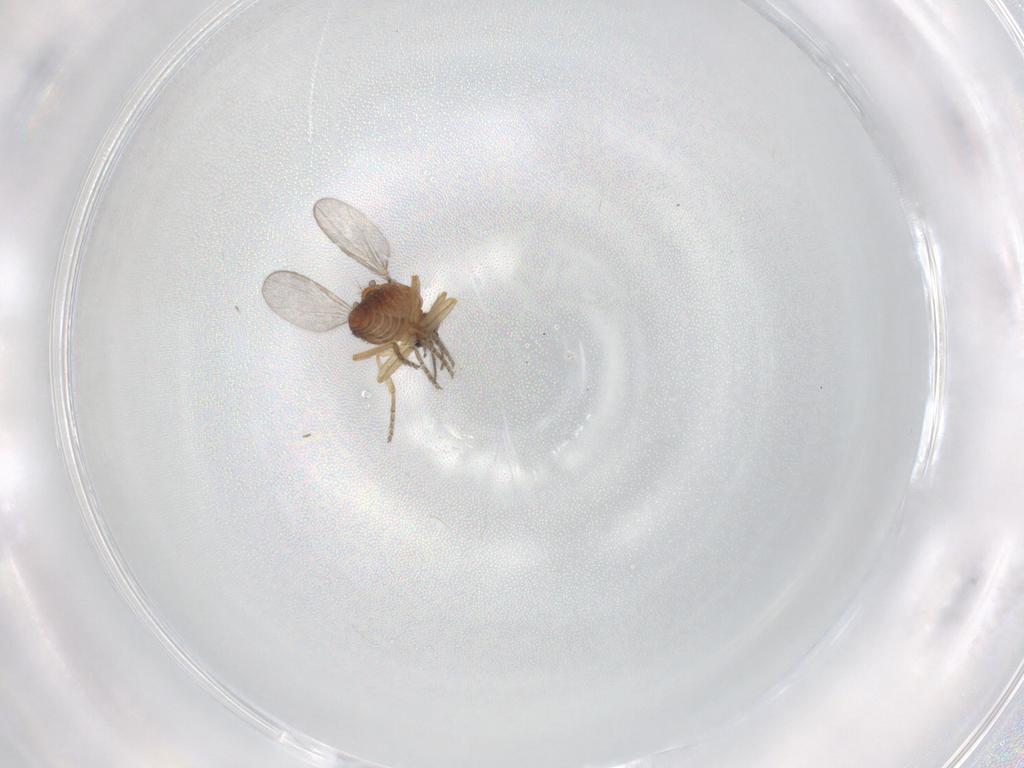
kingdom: Animalia
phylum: Arthropoda
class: Insecta
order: Diptera
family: Ceratopogonidae
